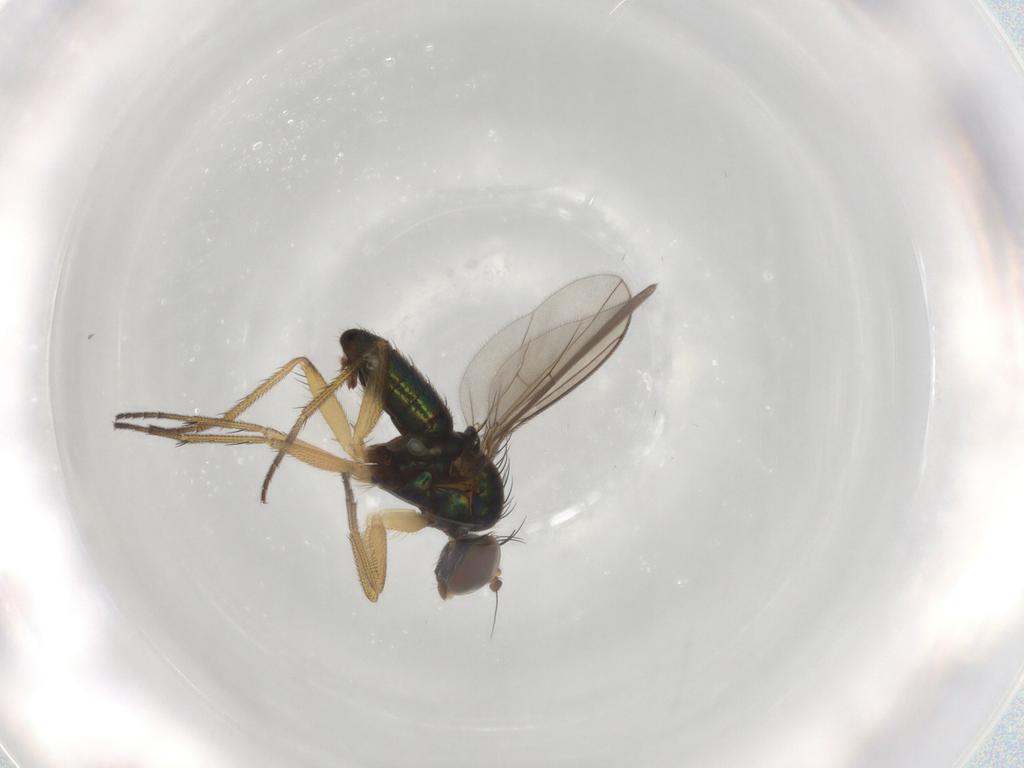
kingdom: Animalia
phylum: Arthropoda
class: Insecta
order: Diptera
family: Dolichopodidae
